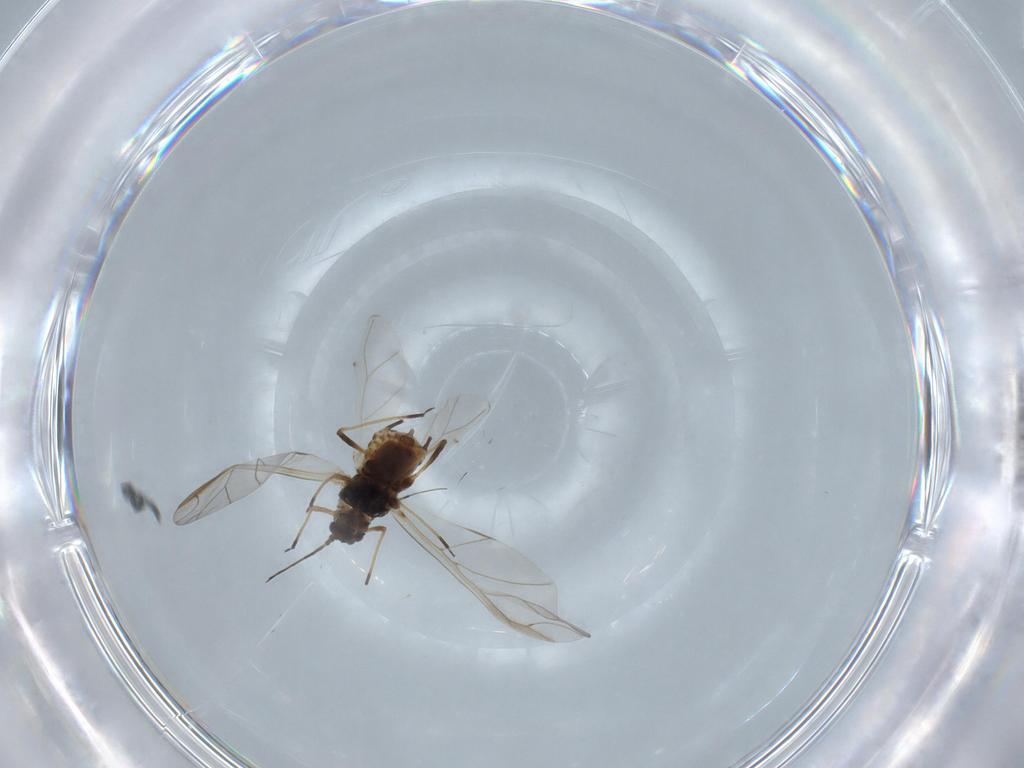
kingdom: Animalia
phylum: Arthropoda
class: Insecta
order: Hemiptera
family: Aphididae
